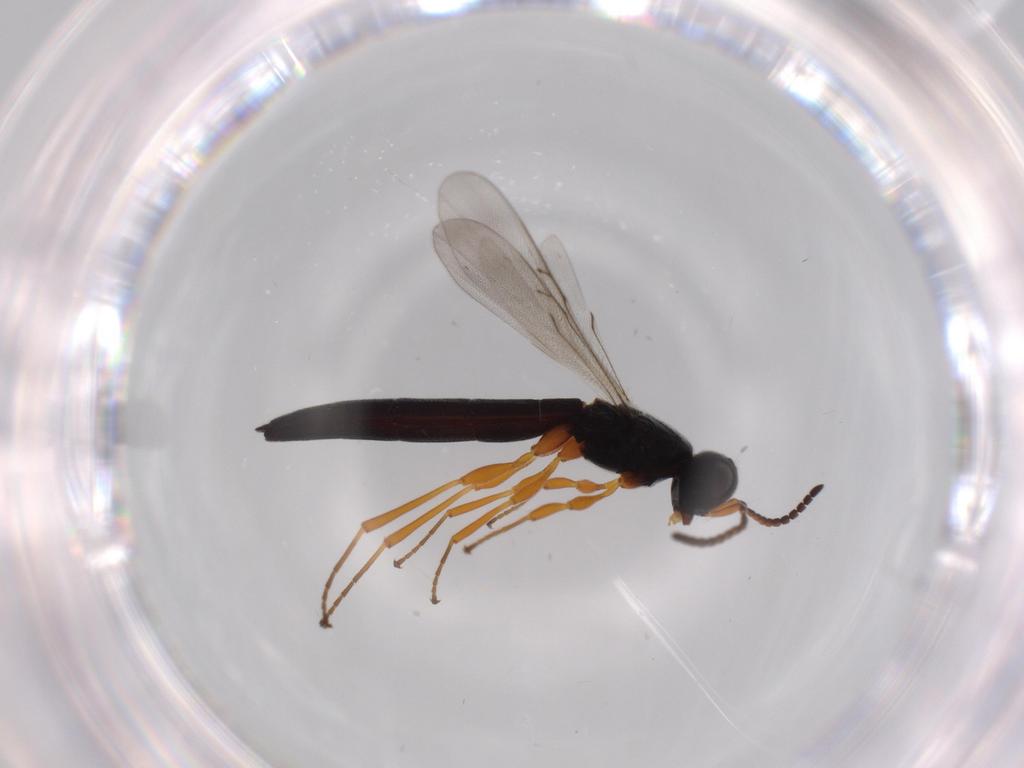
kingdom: Animalia
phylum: Arthropoda
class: Insecta
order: Hymenoptera
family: Scelionidae
